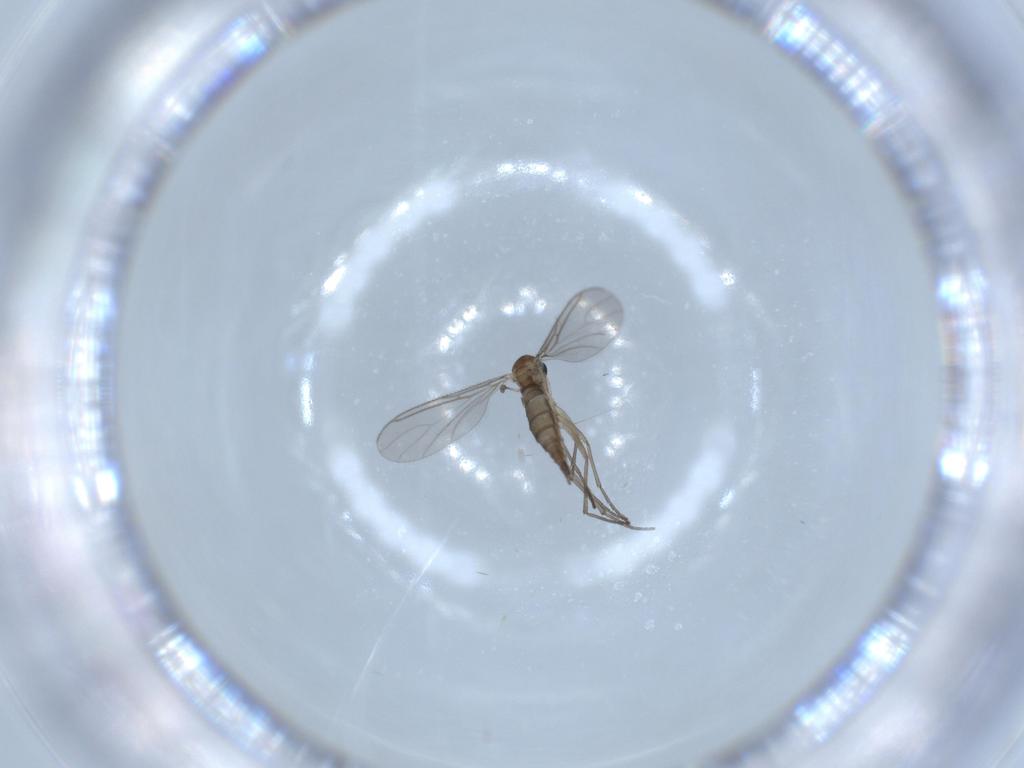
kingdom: Animalia
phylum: Arthropoda
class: Insecta
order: Diptera
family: Sciaridae
